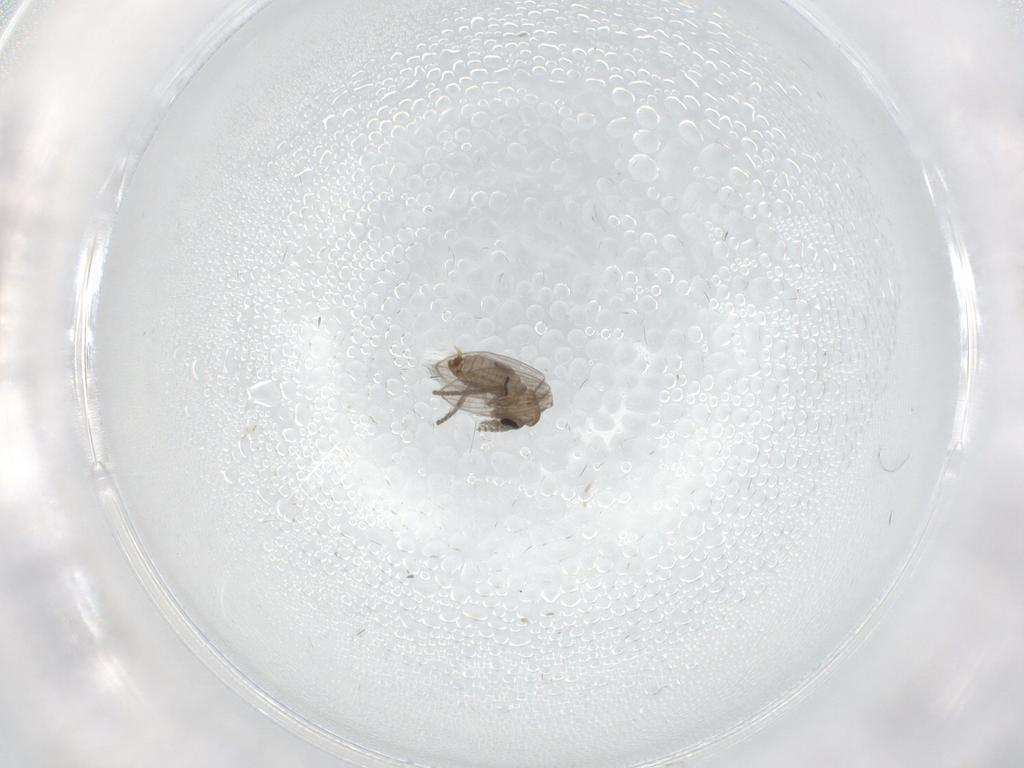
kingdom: Animalia
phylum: Arthropoda
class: Insecta
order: Diptera
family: Psychodidae
